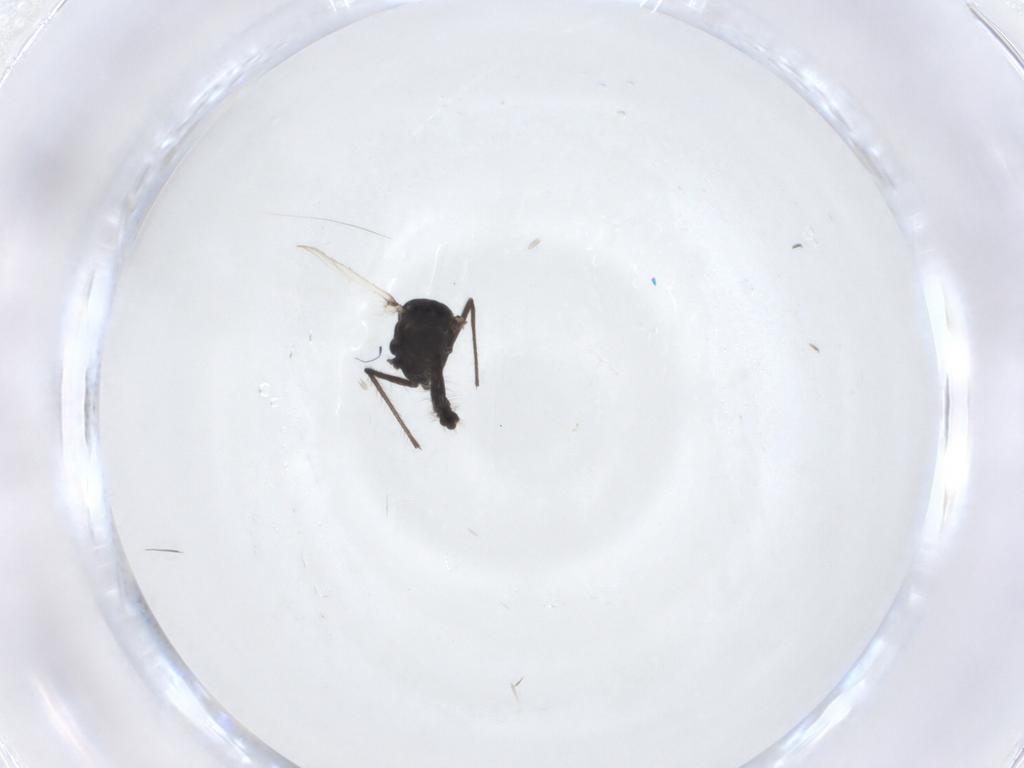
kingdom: Animalia
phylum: Arthropoda
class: Insecta
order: Diptera
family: Chironomidae
